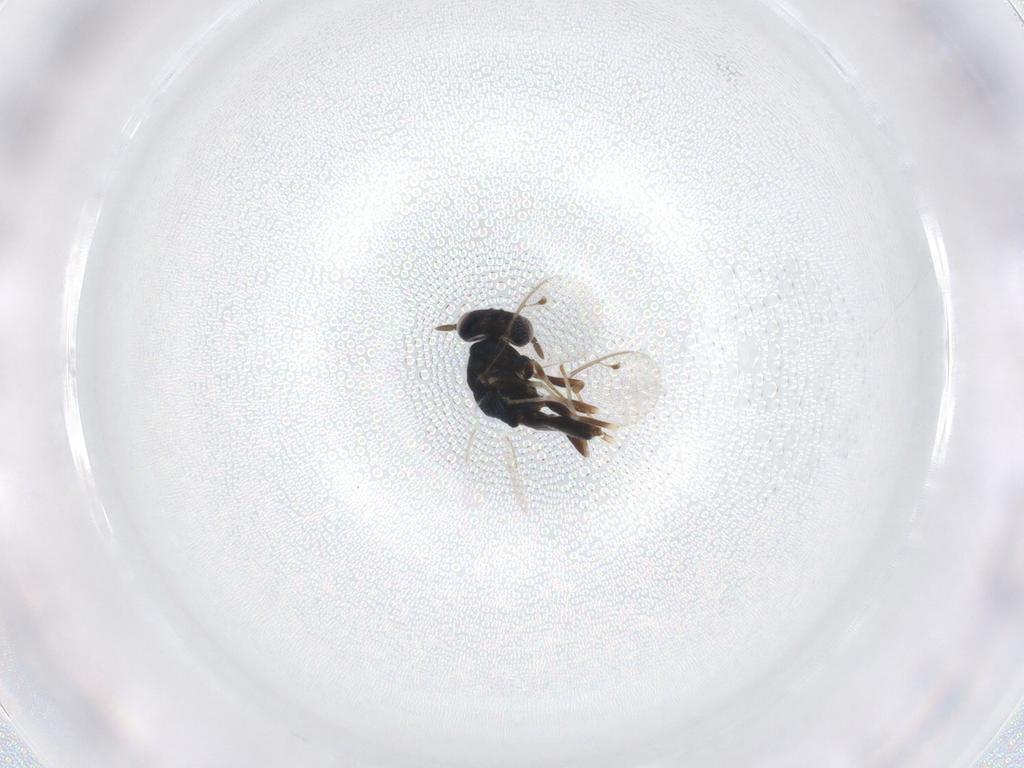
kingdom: Animalia
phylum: Arthropoda
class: Insecta
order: Hymenoptera
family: Pteromalidae
